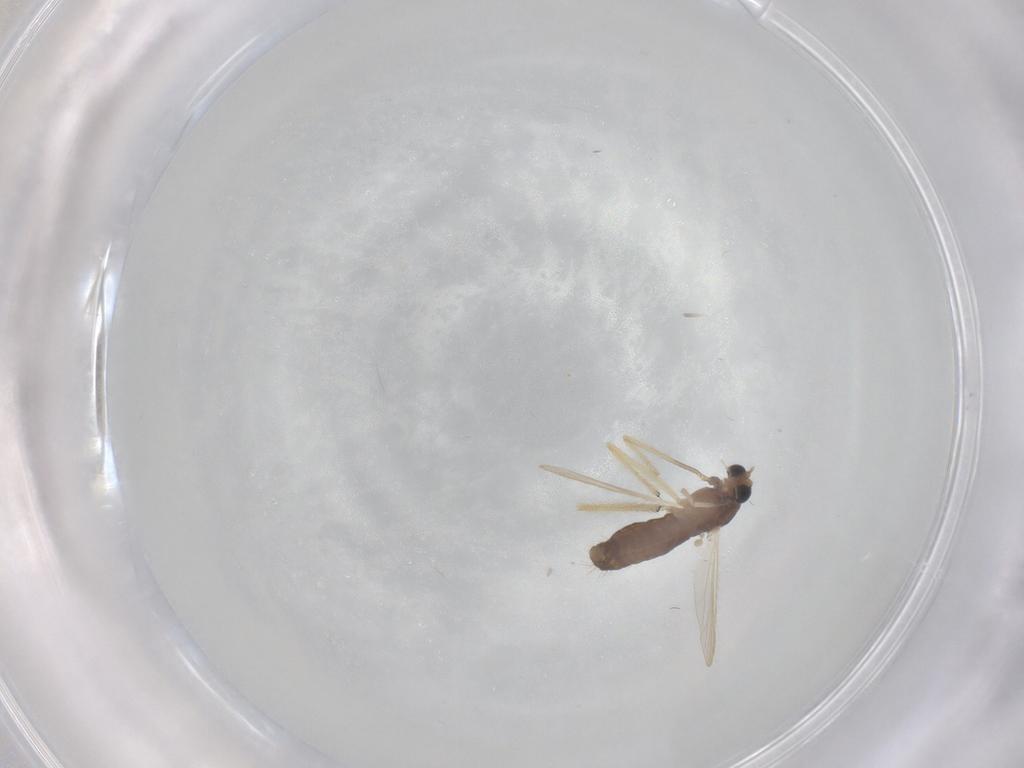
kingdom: Animalia
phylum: Arthropoda
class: Insecta
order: Diptera
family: Chironomidae
